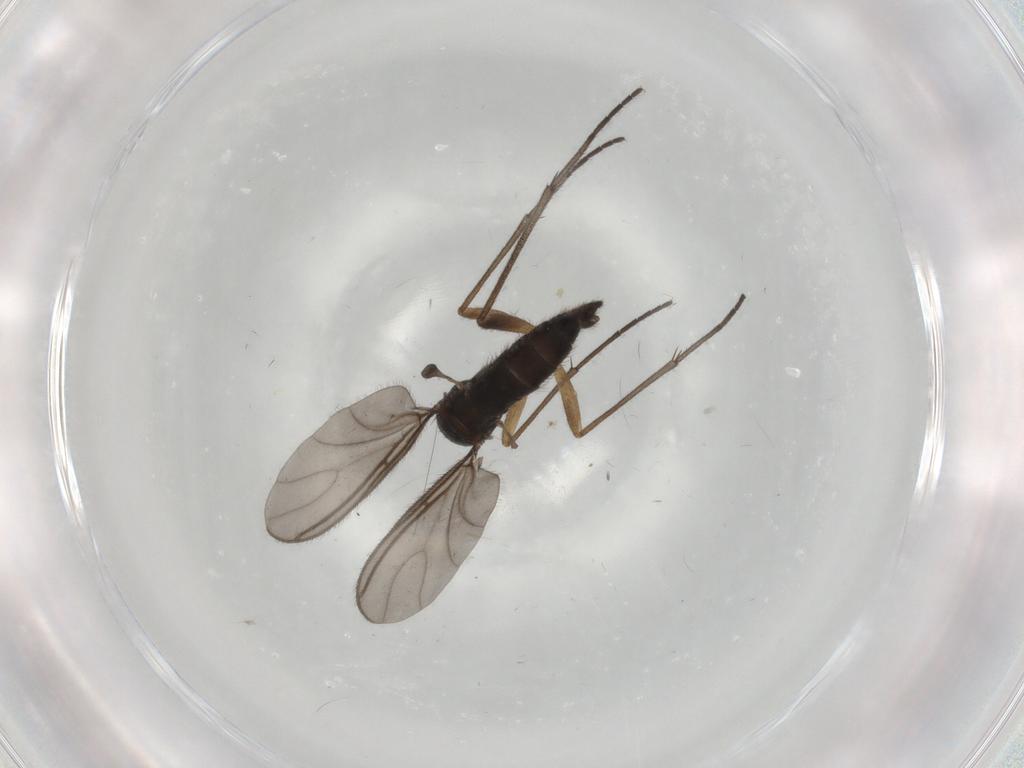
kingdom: Animalia
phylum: Arthropoda
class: Insecta
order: Diptera
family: Sciaridae
